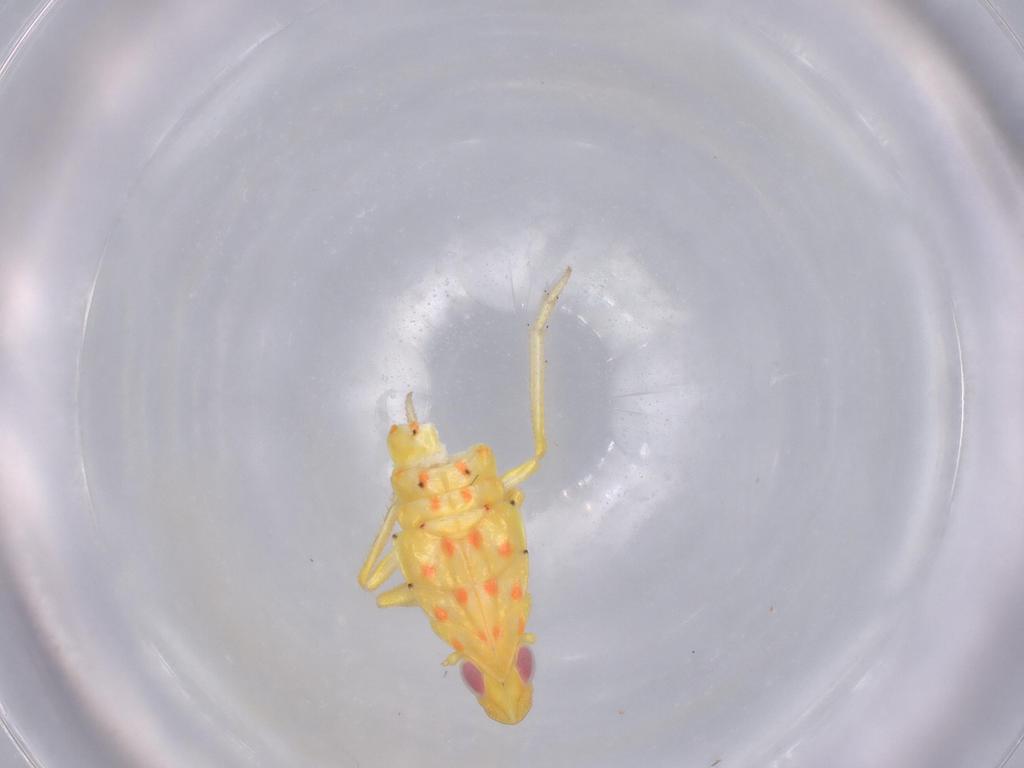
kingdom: Animalia
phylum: Arthropoda
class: Insecta
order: Hemiptera
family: Tropiduchidae
